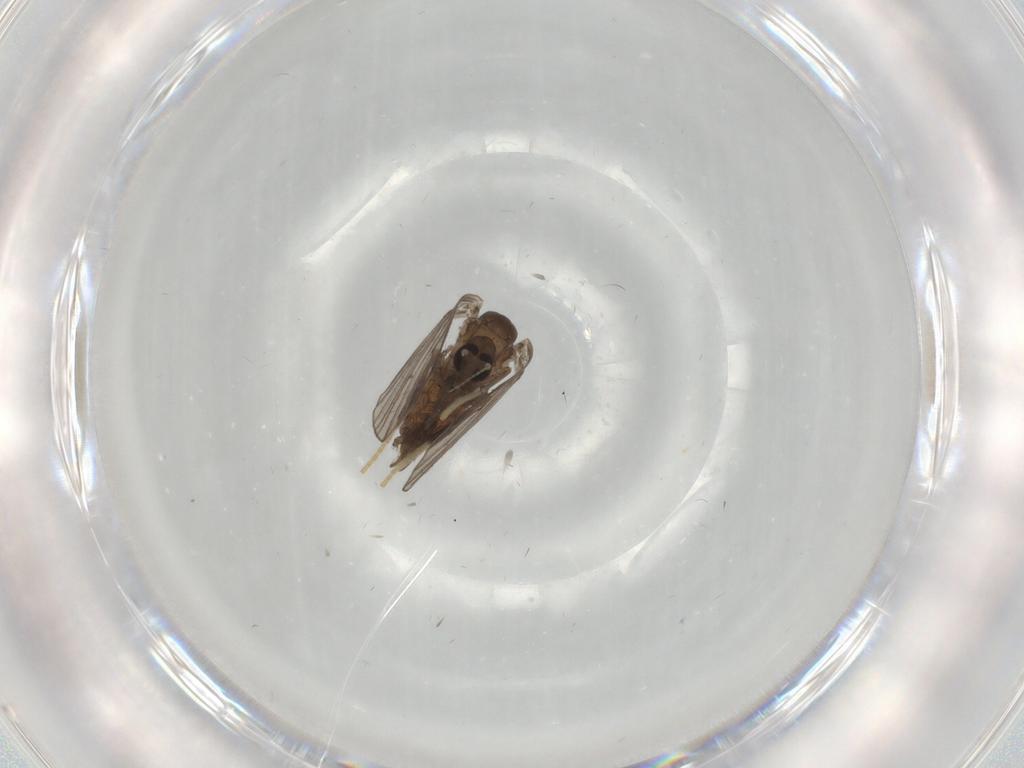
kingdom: Animalia
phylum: Arthropoda
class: Insecta
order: Diptera
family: Psychodidae
